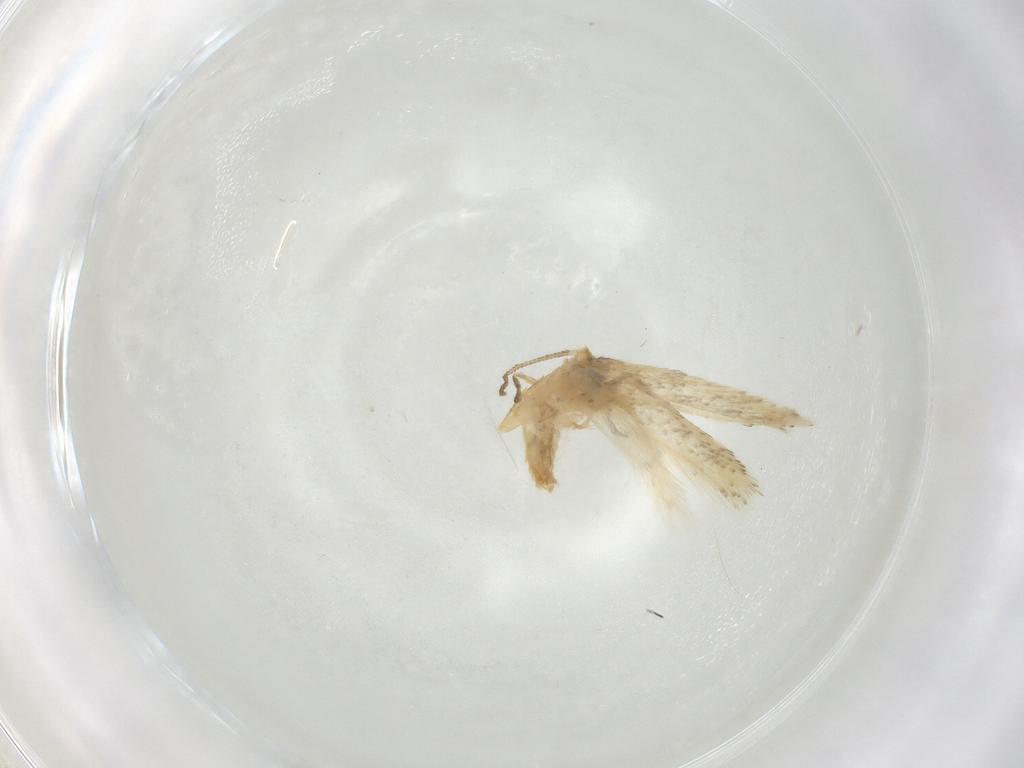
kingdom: Animalia
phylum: Arthropoda
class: Insecta
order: Lepidoptera
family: Nepticulidae
